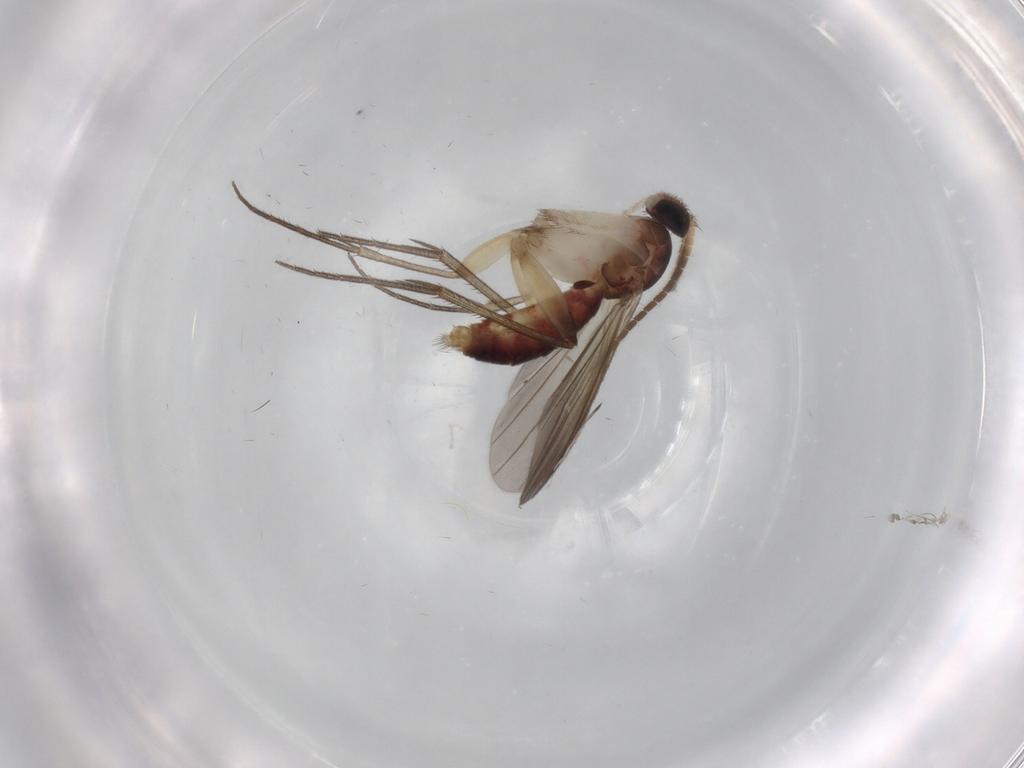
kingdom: Animalia
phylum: Arthropoda
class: Insecta
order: Diptera
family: Mycetophilidae
